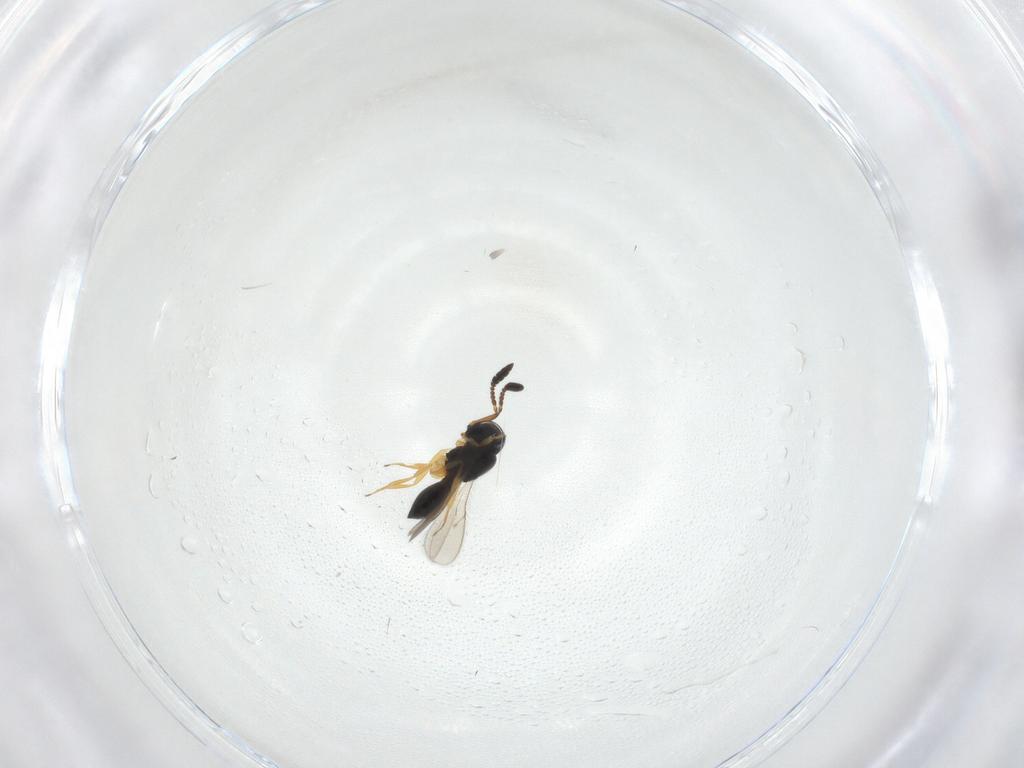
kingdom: Animalia
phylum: Arthropoda
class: Insecta
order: Hymenoptera
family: Scelionidae
